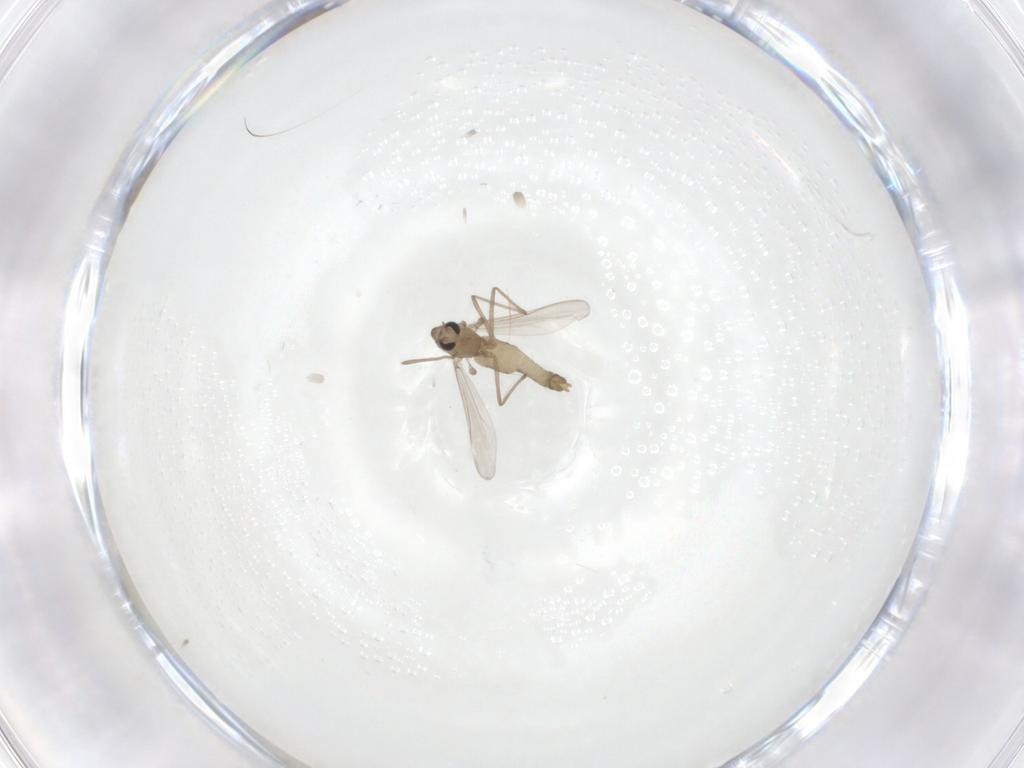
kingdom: Animalia
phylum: Arthropoda
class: Insecta
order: Diptera
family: Chironomidae
